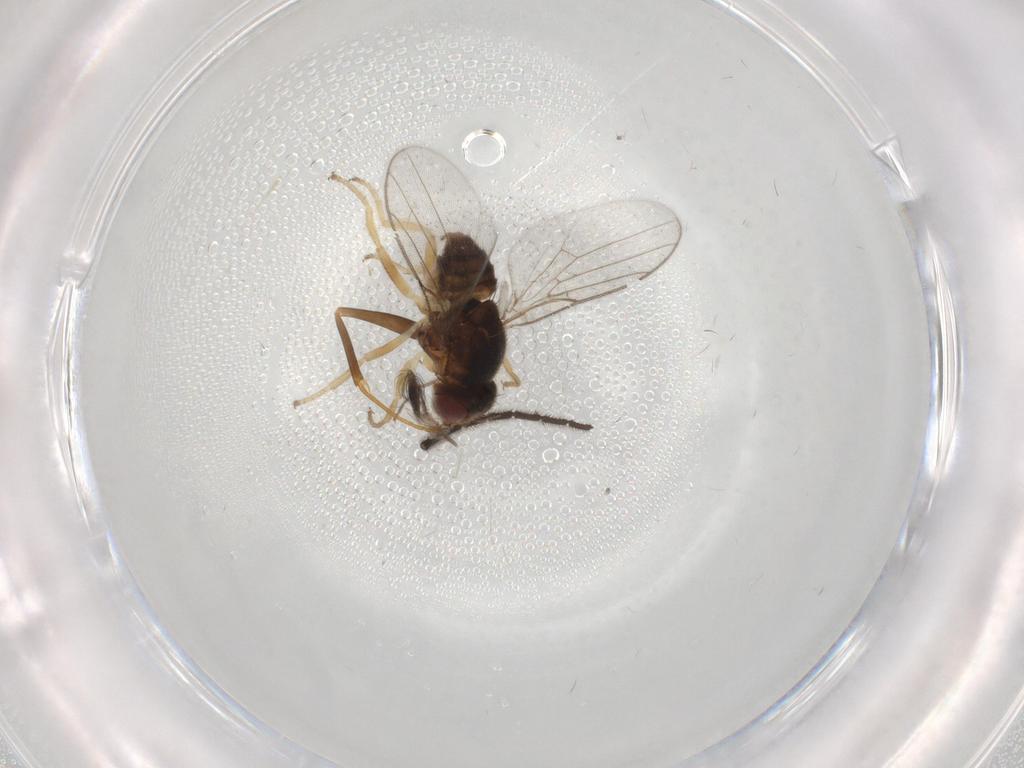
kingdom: Animalia
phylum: Arthropoda
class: Insecta
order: Diptera
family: Chloropidae
